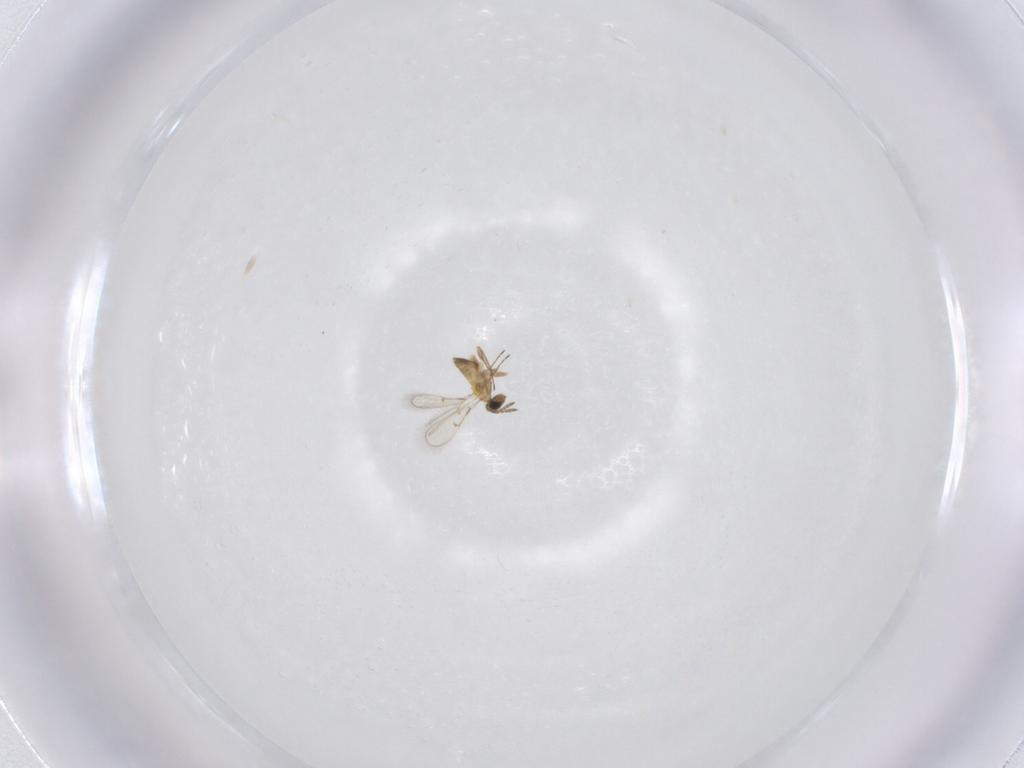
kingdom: Animalia
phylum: Arthropoda
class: Insecta
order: Hymenoptera
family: Trichogrammatidae
